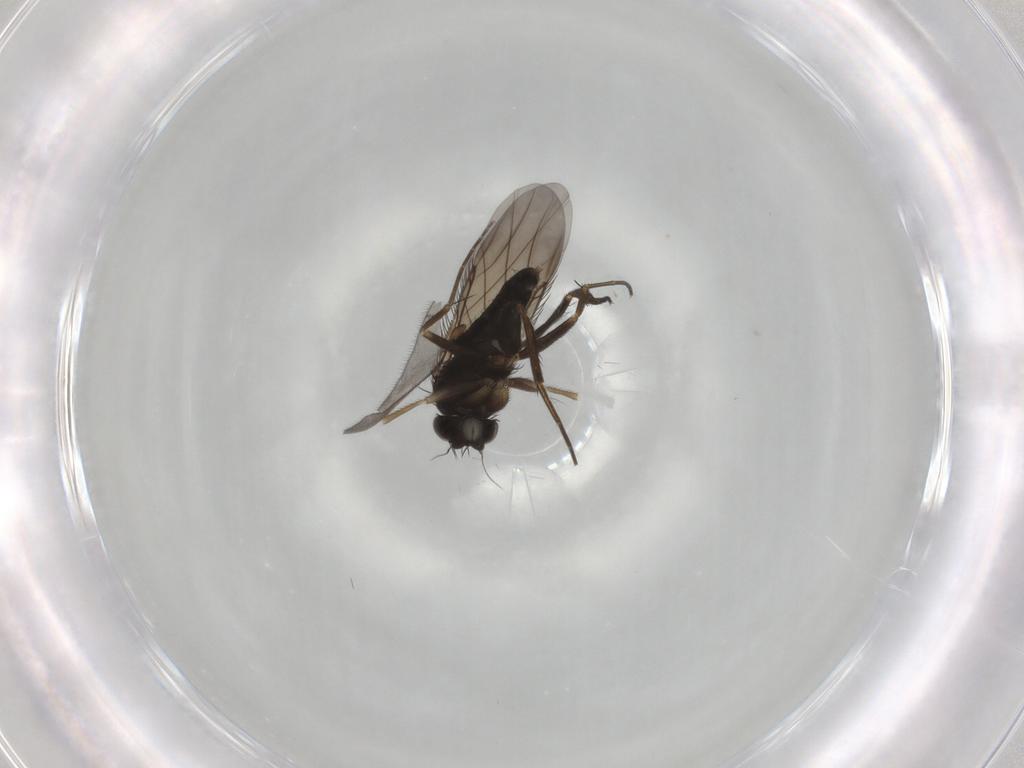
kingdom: Animalia
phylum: Arthropoda
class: Insecta
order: Diptera
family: Phoridae
